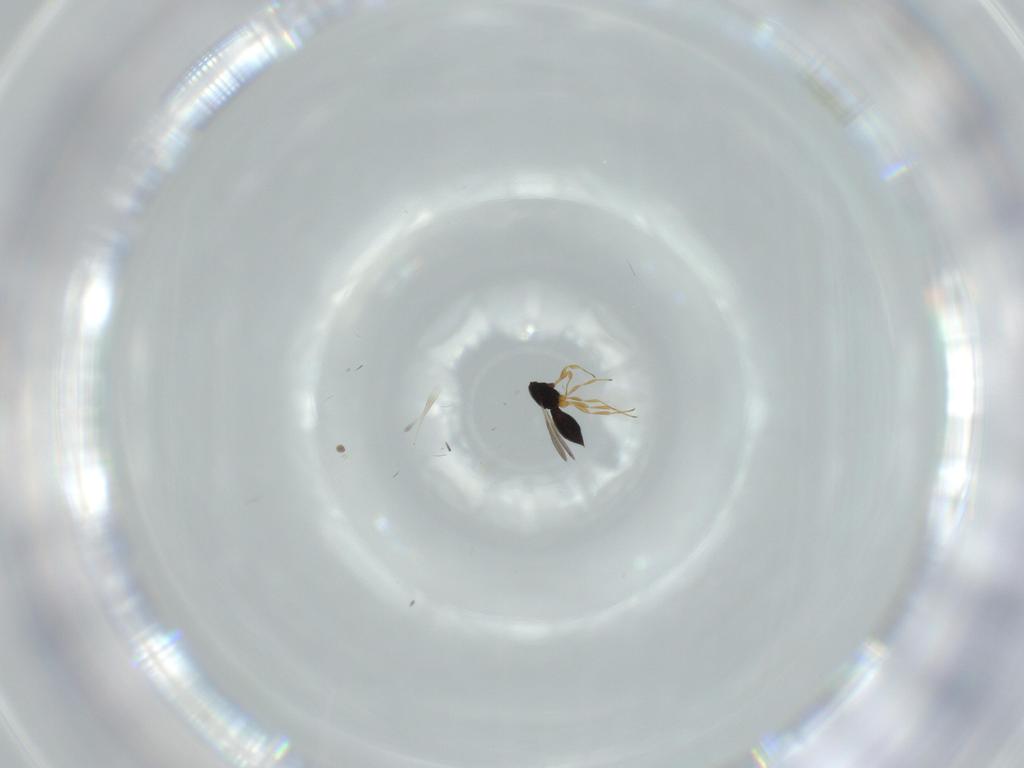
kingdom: Animalia
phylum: Arthropoda
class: Insecta
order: Hymenoptera
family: Scelionidae
